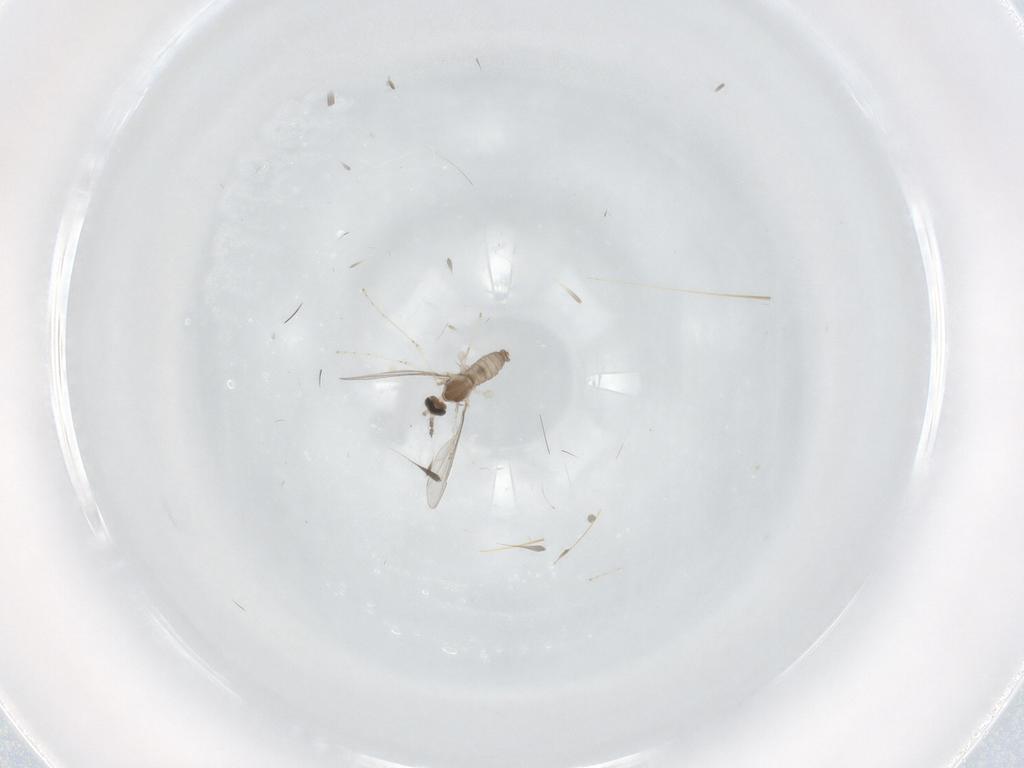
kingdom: Animalia
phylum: Arthropoda
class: Insecta
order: Diptera
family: Cecidomyiidae
